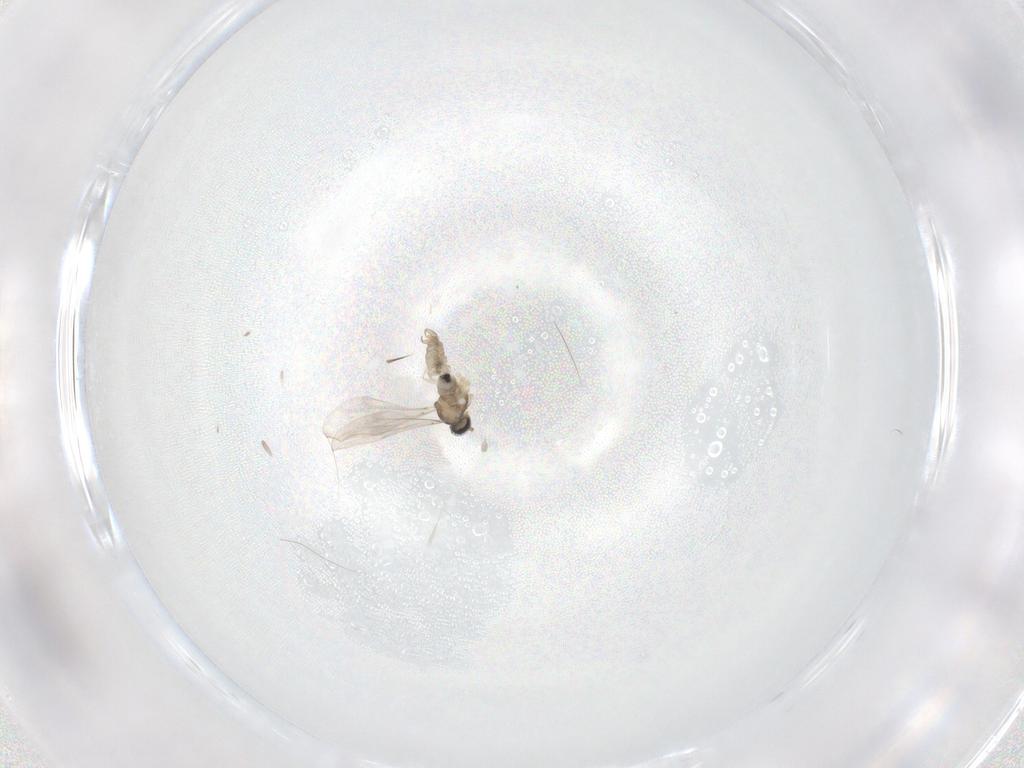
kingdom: Animalia
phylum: Arthropoda
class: Insecta
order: Diptera
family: Cecidomyiidae
